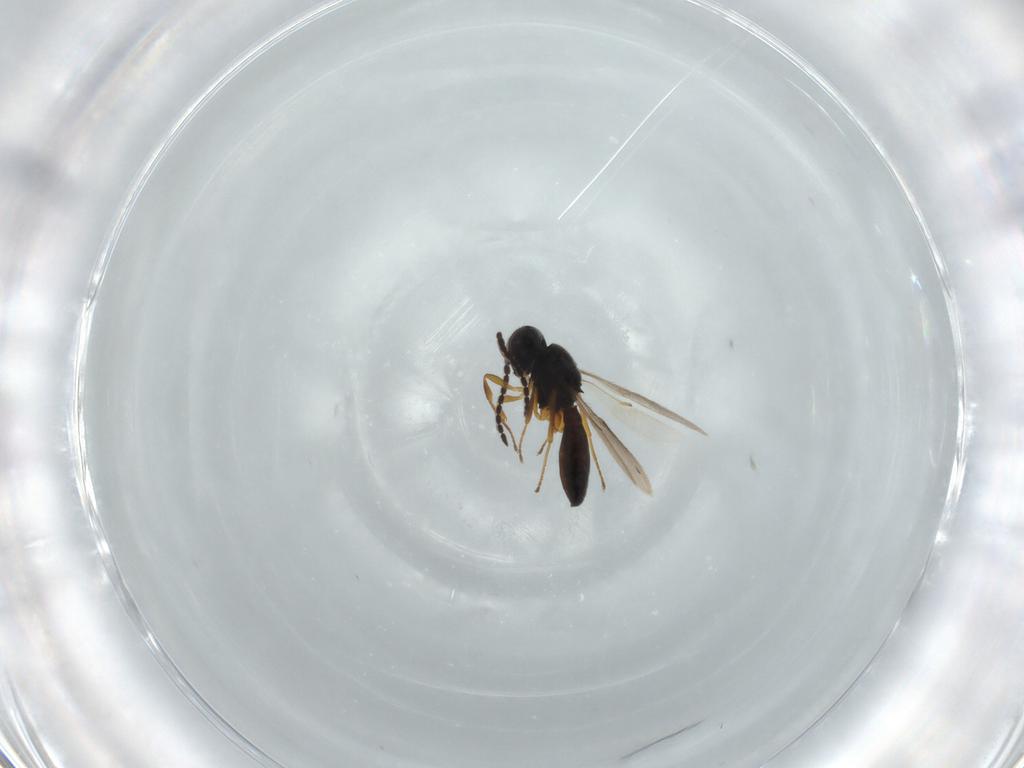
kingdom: Animalia
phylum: Arthropoda
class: Insecta
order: Hymenoptera
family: Scelionidae
